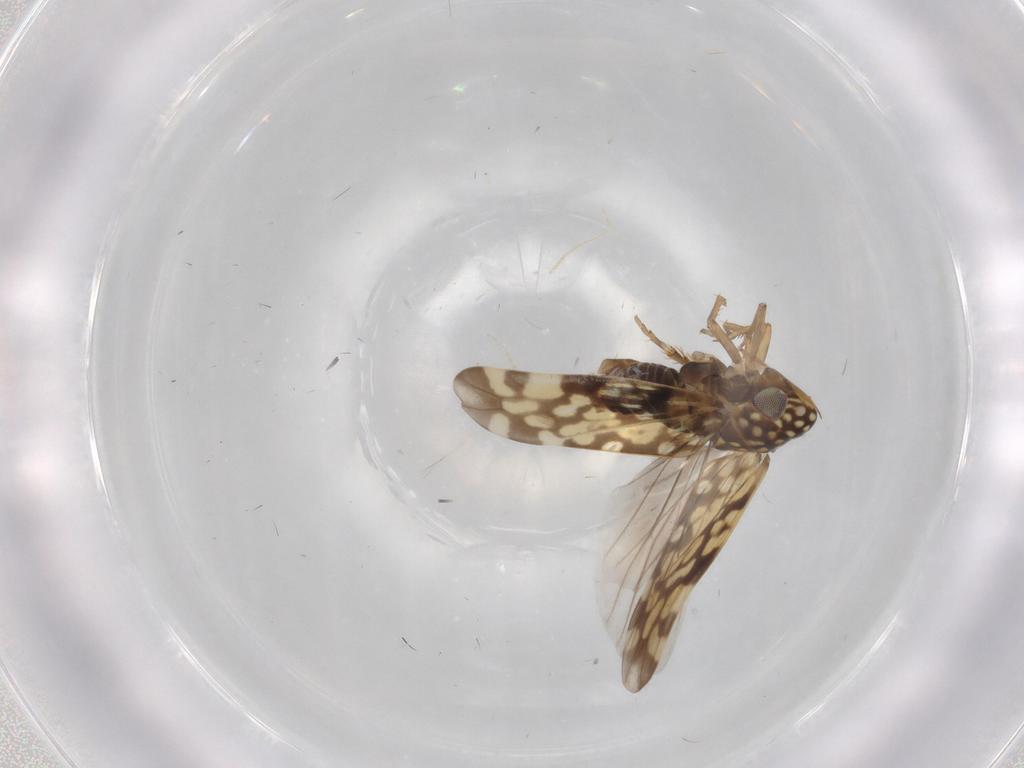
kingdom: Animalia
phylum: Arthropoda
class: Insecta
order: Hemiptera
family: Cicadellidae
